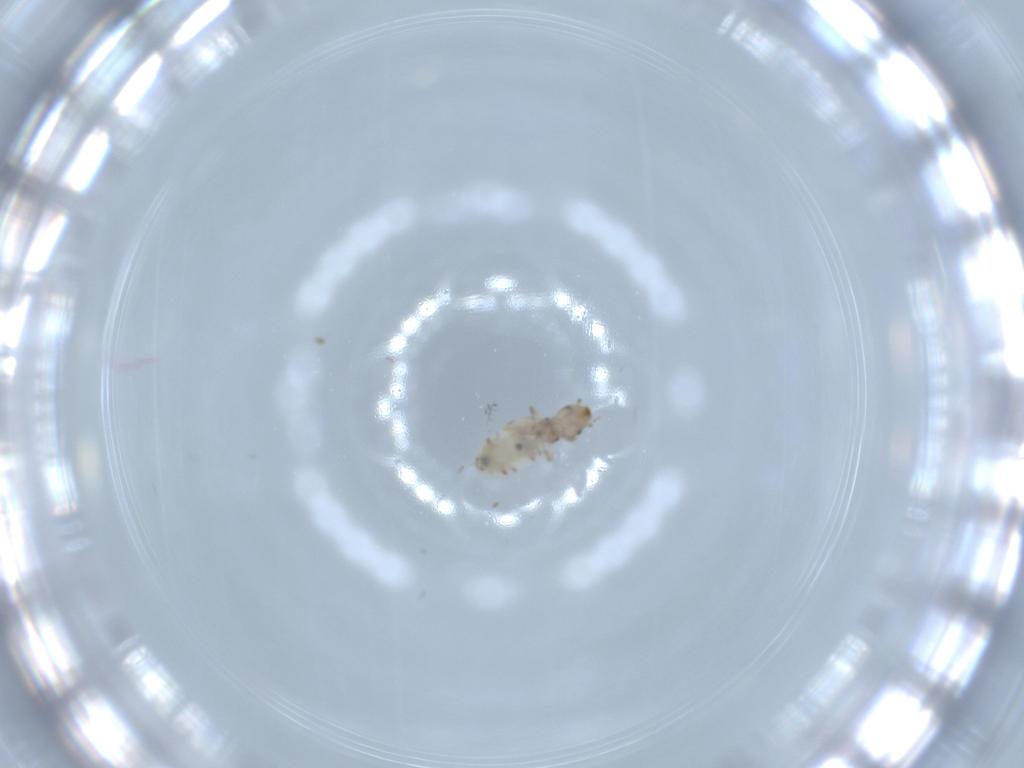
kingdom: Animalia
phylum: Arthropoda
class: Insecta
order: Psocodea
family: Liposcelididae
